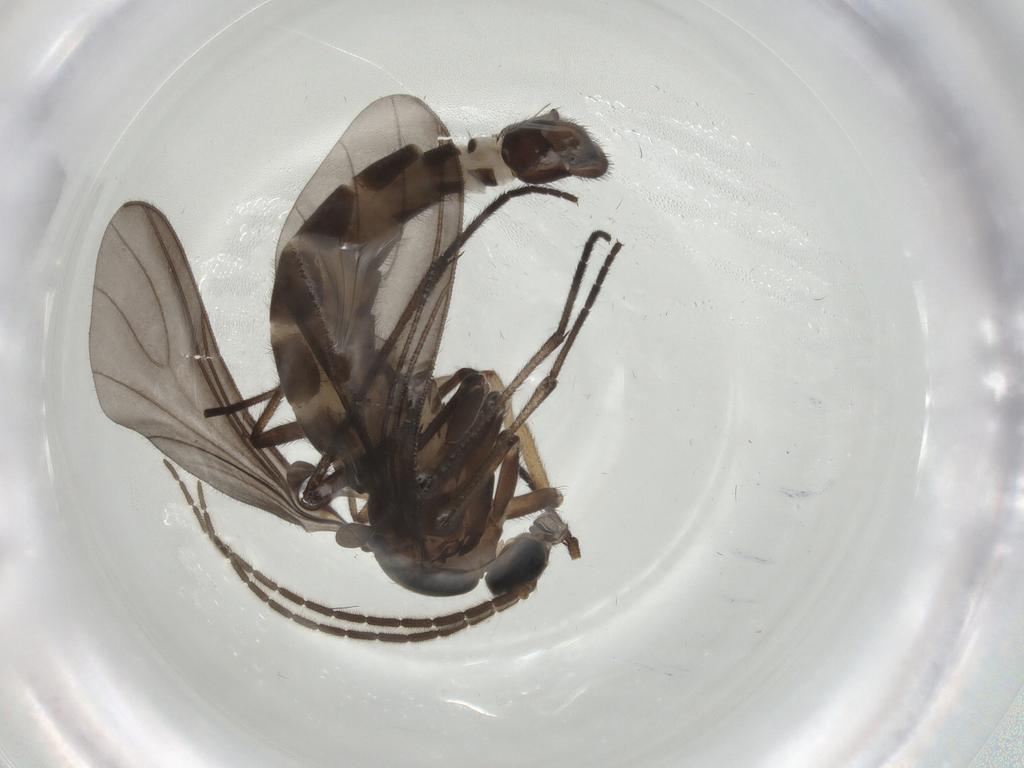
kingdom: Animalia
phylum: Arthropoda
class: Insecta
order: Diptera
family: Sciaridae
